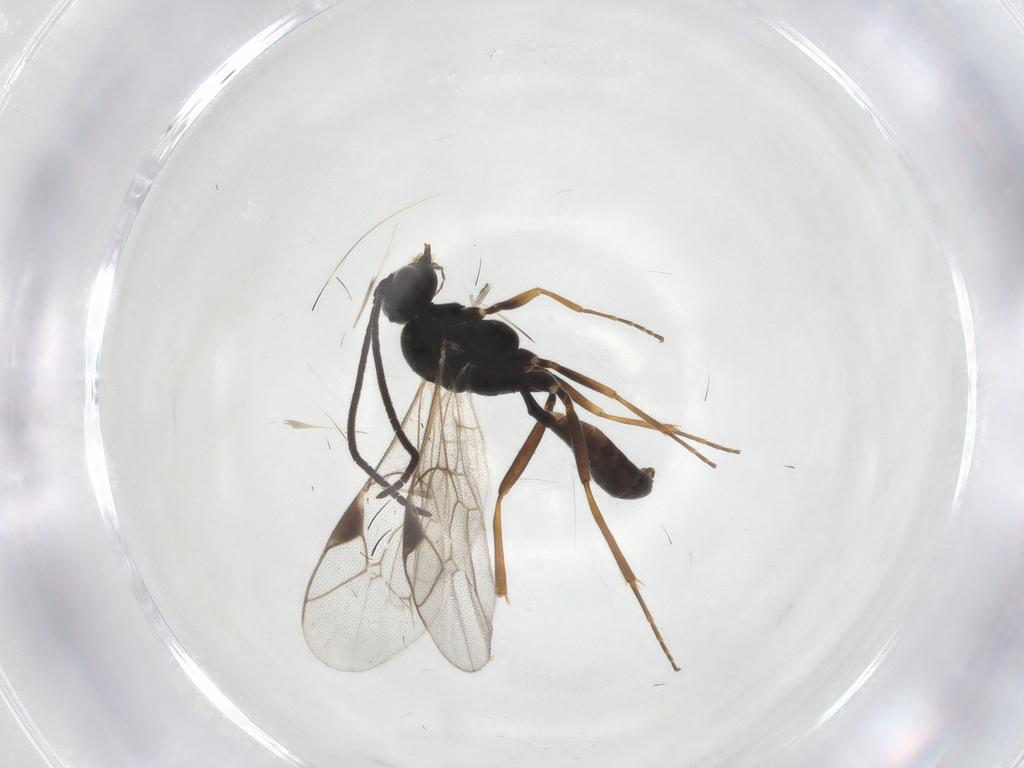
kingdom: Animalia
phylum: Arthropoda
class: Insecta
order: Hymenoptera
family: Ichneumonidae
